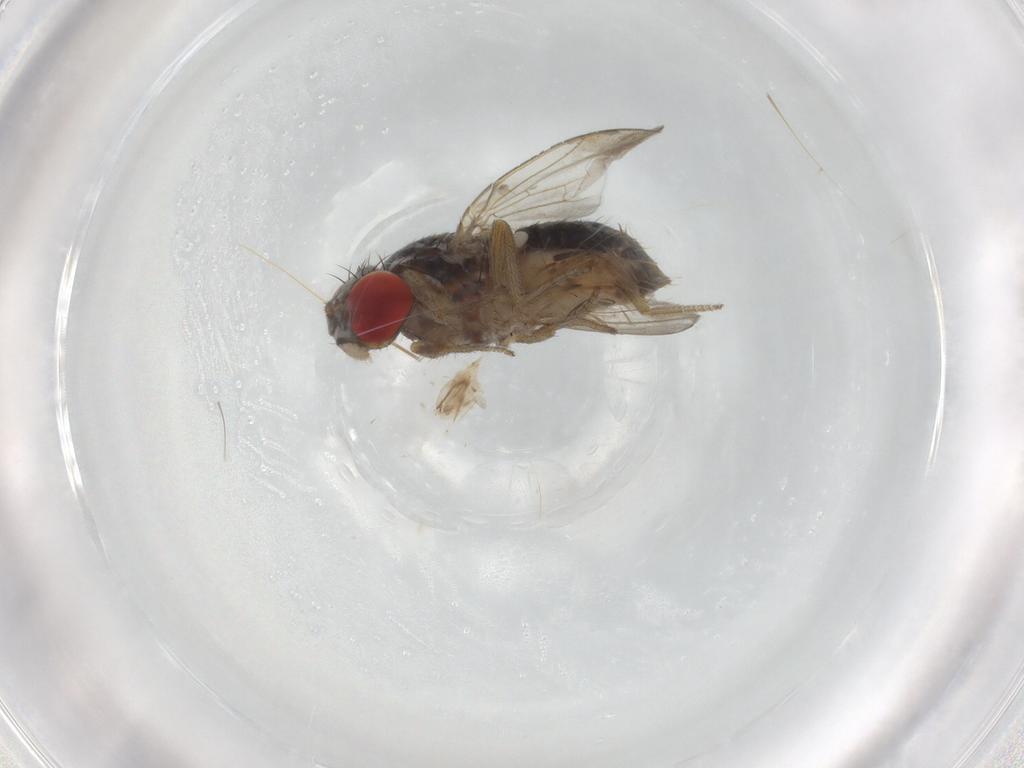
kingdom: Animalia
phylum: Arthropoda
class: Insecta
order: Diptera
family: Drosophilidae
